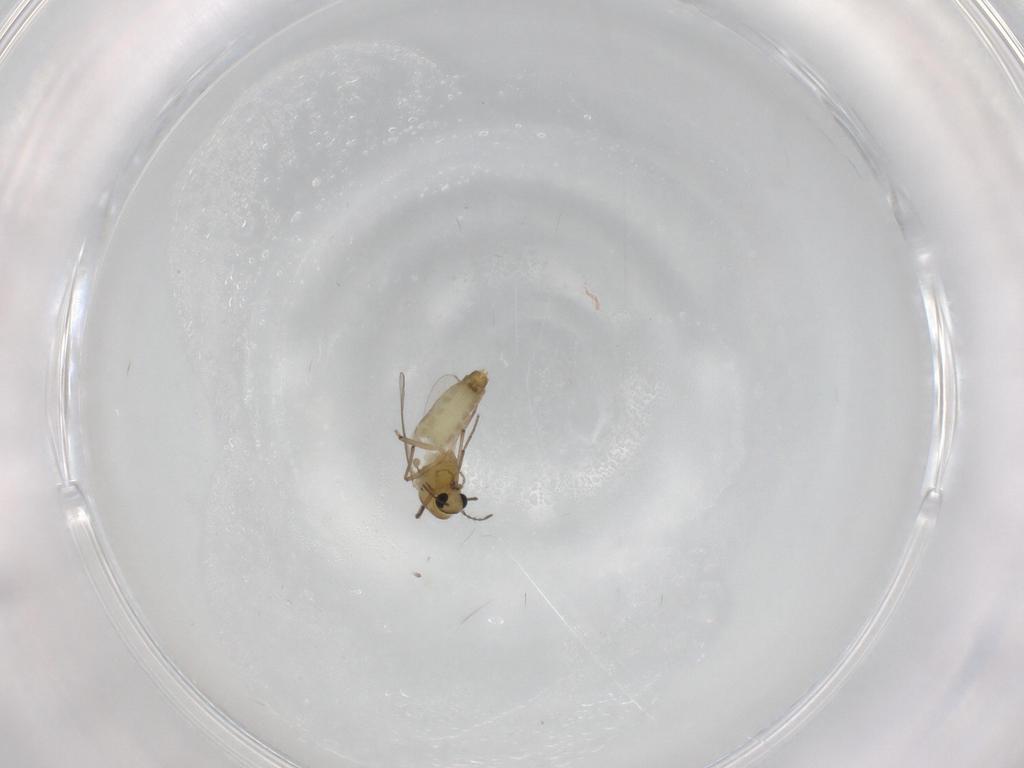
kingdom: Animalia
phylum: Arthropoda
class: Insecta
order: Diptera
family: Chironomidae
